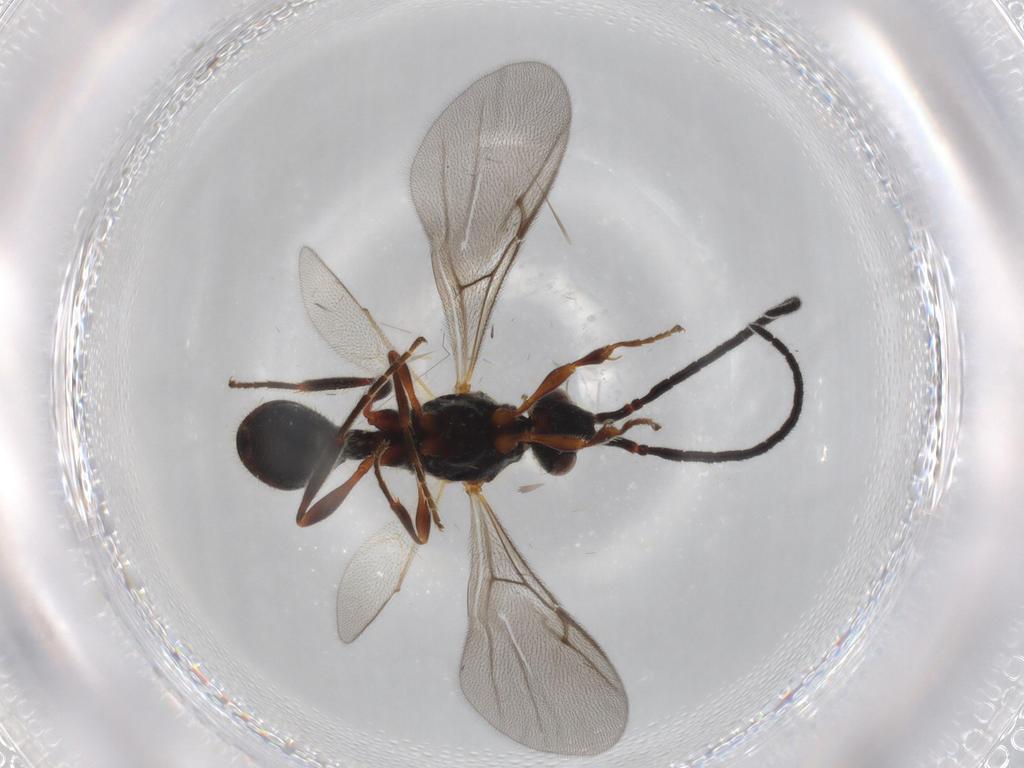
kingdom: Animalia
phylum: Arthropoda
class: Insecta
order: Hymenoptera
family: Diapriidae
